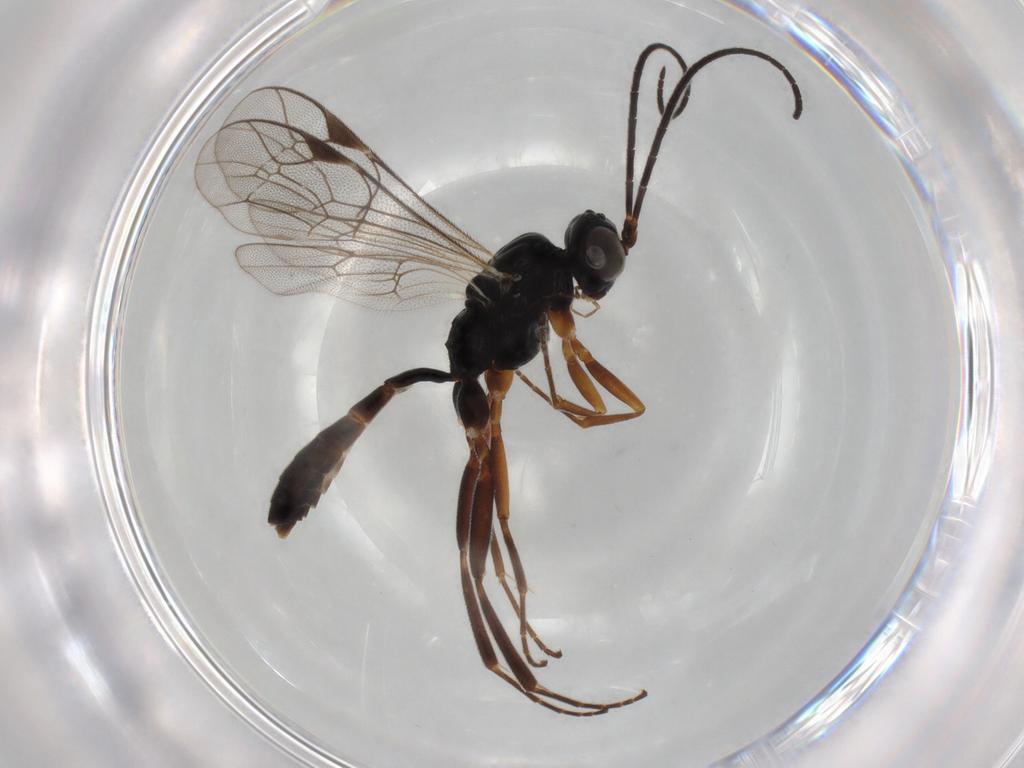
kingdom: Animalia
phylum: Arthropoda
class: Insecta
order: Hymenoptera
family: Ichneumonidae
